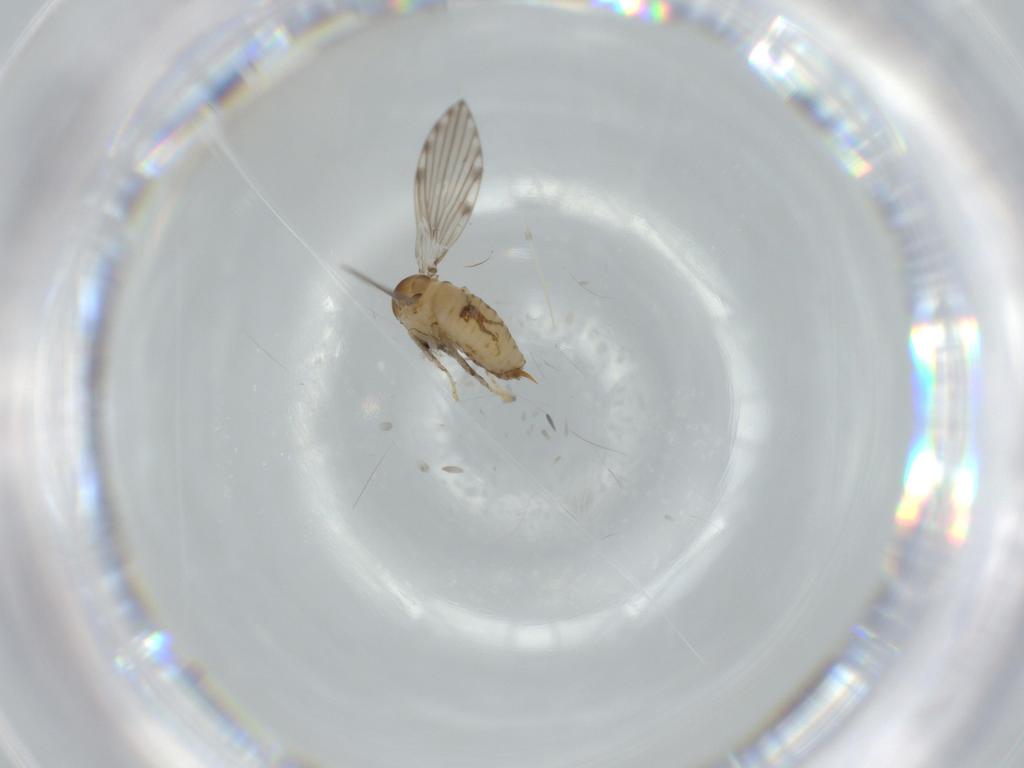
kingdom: Animalia
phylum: Arthropoda
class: Insecta
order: Diptera
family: Psychodidae
